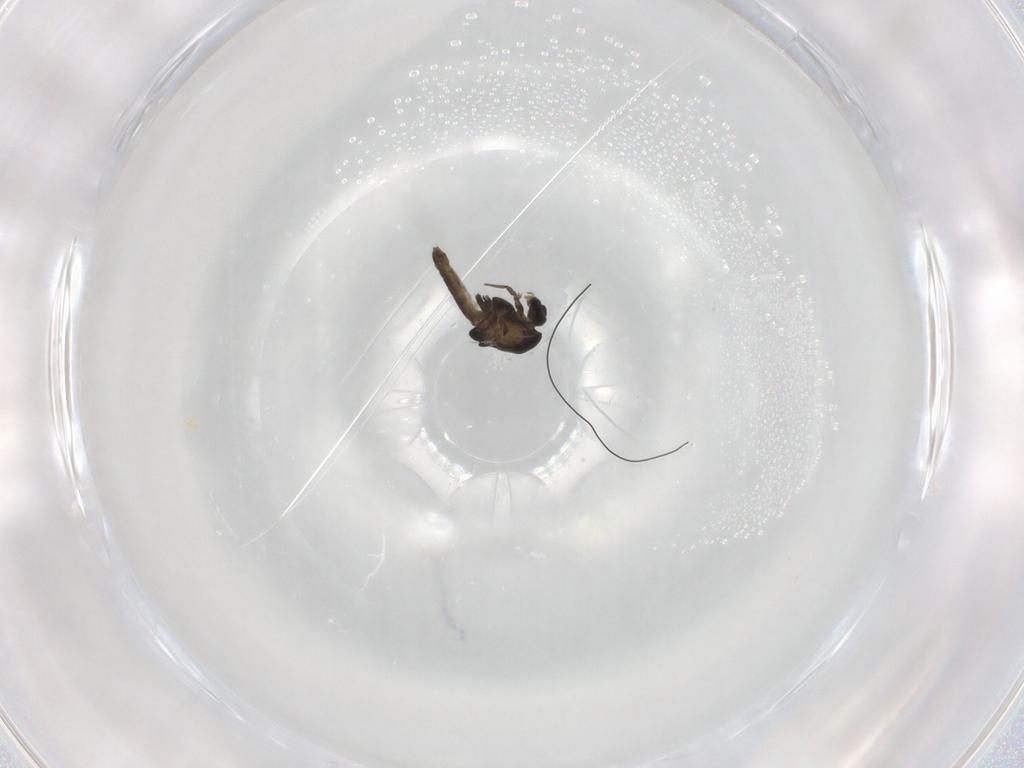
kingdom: Animalia
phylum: Arthropoda
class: Insecta
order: Diptera
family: Chironomidae
